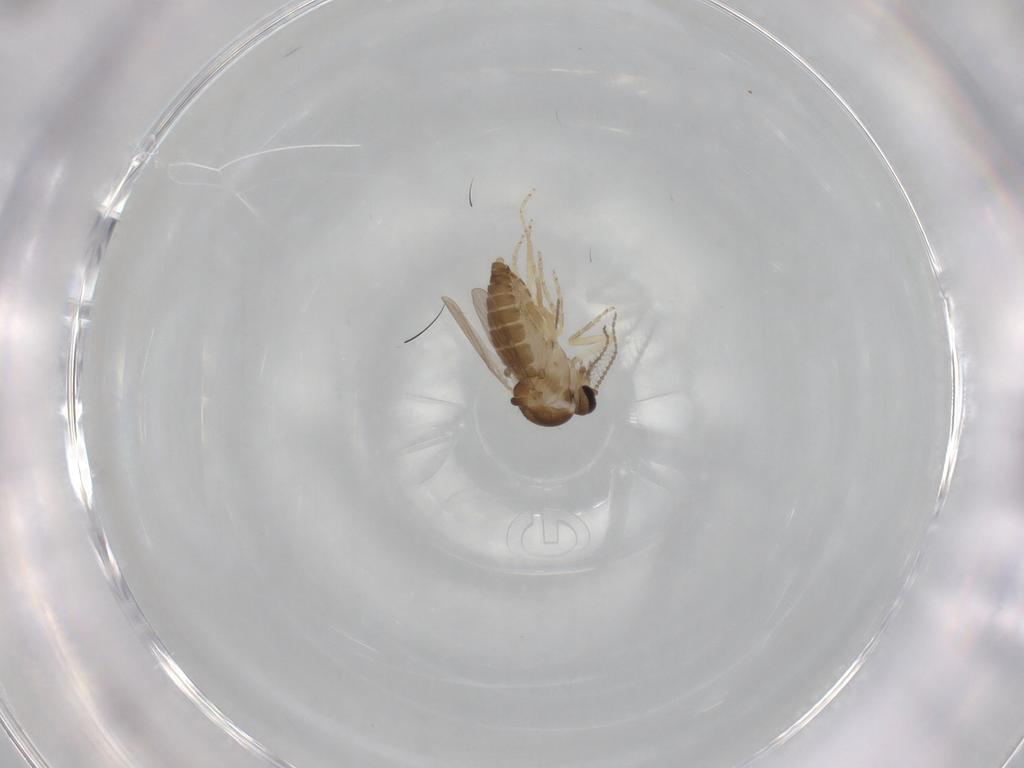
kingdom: Animalia
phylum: Arthropoda
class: Insecta
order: Diptera
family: Ceratopogonidae
